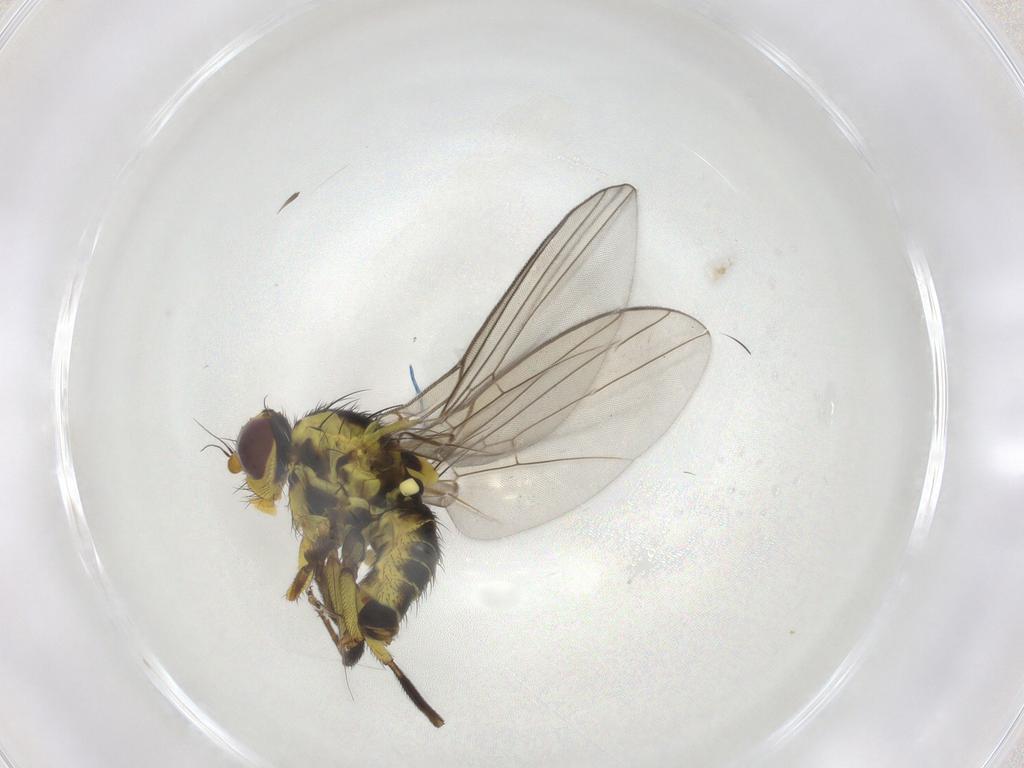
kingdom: Animalia
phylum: Arthropoda
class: Insecta
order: Diptera
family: Agromyzidae
